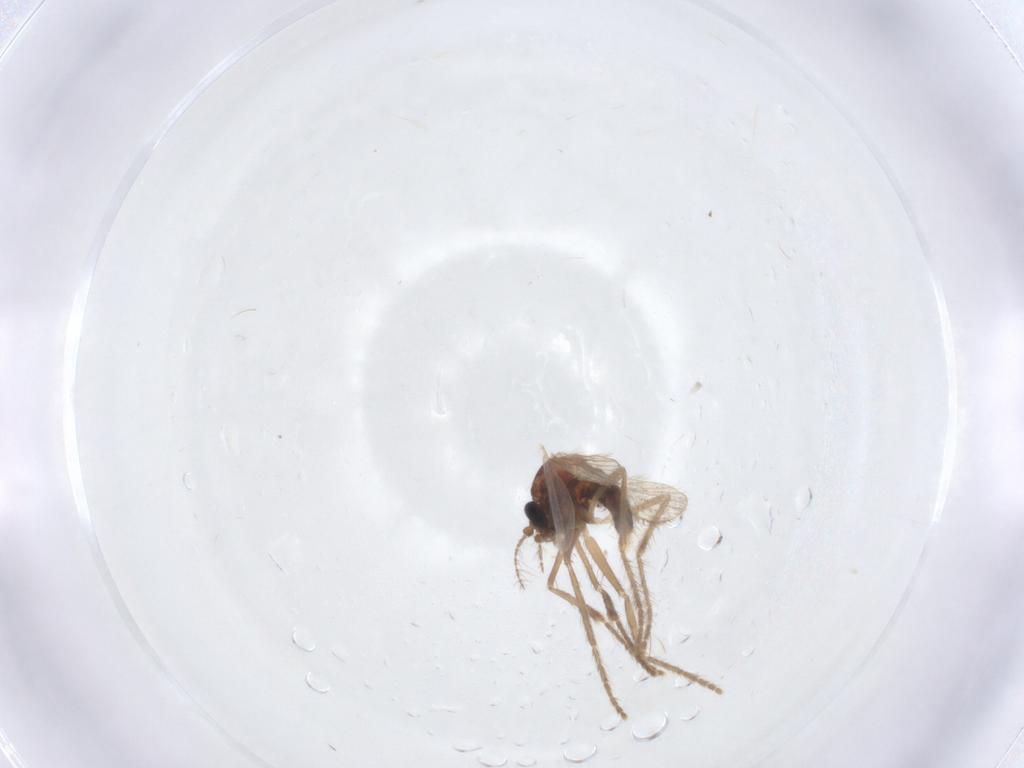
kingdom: Animalia
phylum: Arthropoda
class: Insecta
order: Diptera
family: Corethrellidae
